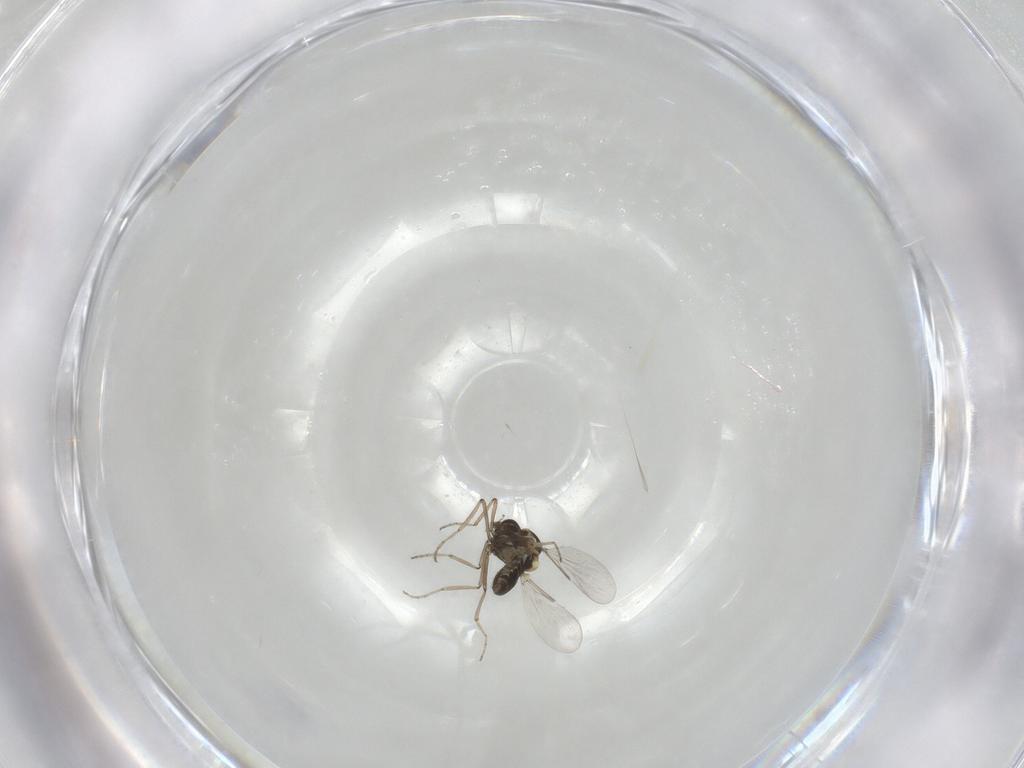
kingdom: Animalia
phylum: Arthropoda
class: Insecta
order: Diptera
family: Ceratopogonidae
